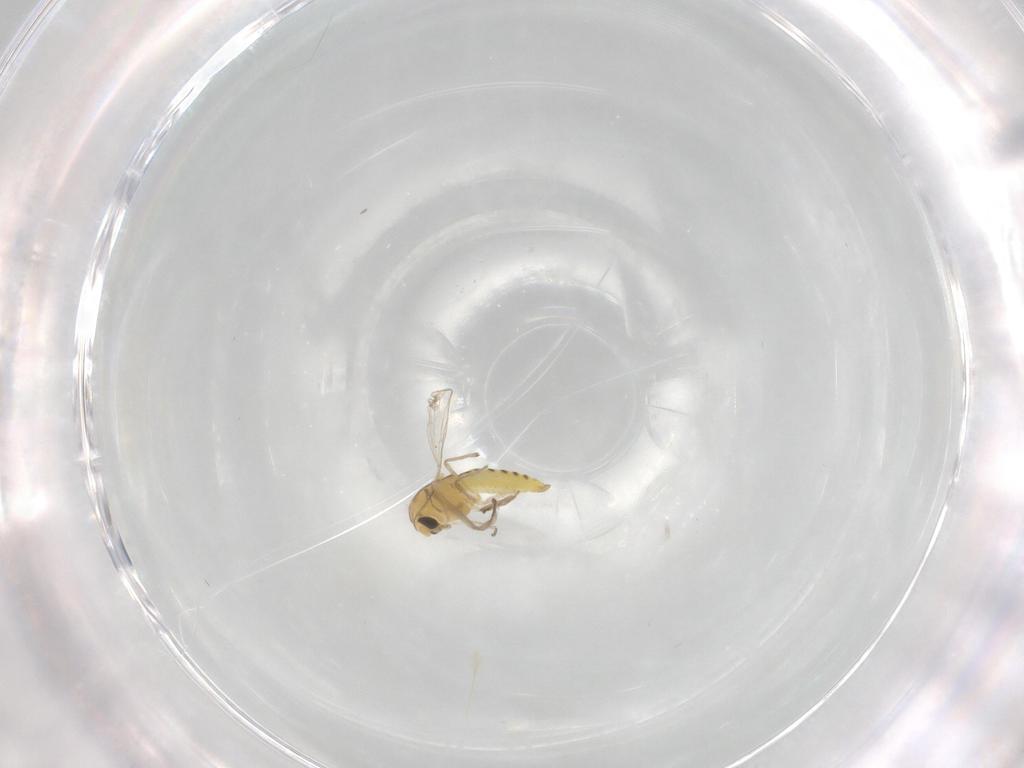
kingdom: Animalia
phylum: Arthropoda
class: Insecta
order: Diptera
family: Chironomidae
